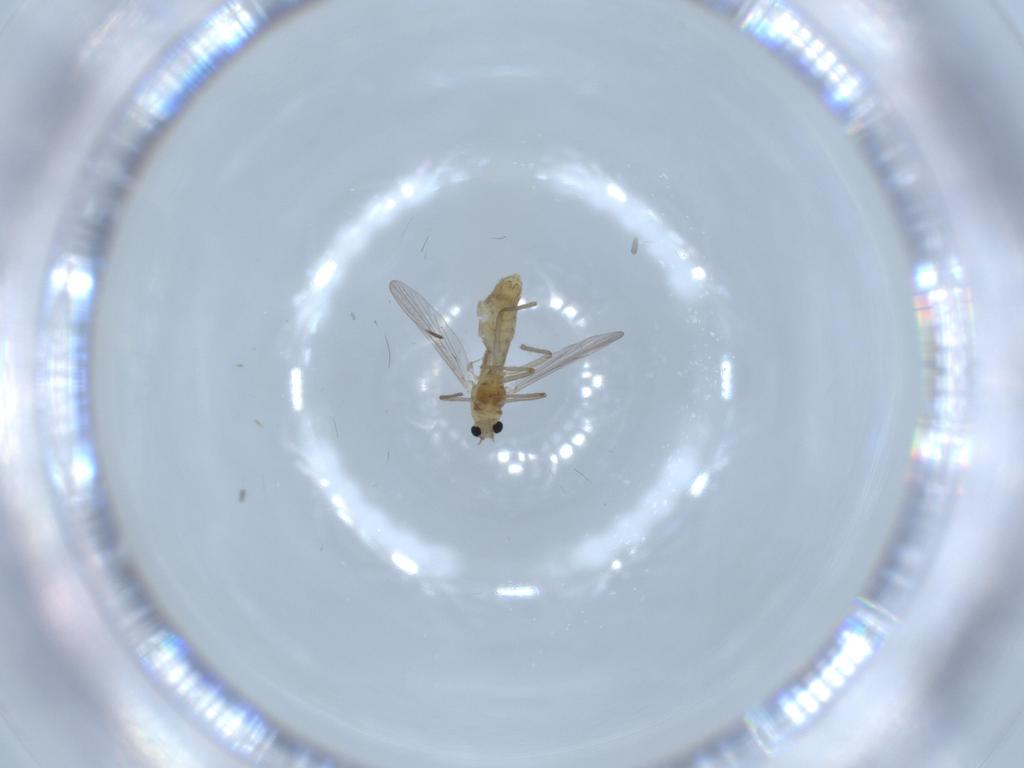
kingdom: Animalia
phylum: Arthropoda
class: Insecta
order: Diptera
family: Chironomidae
